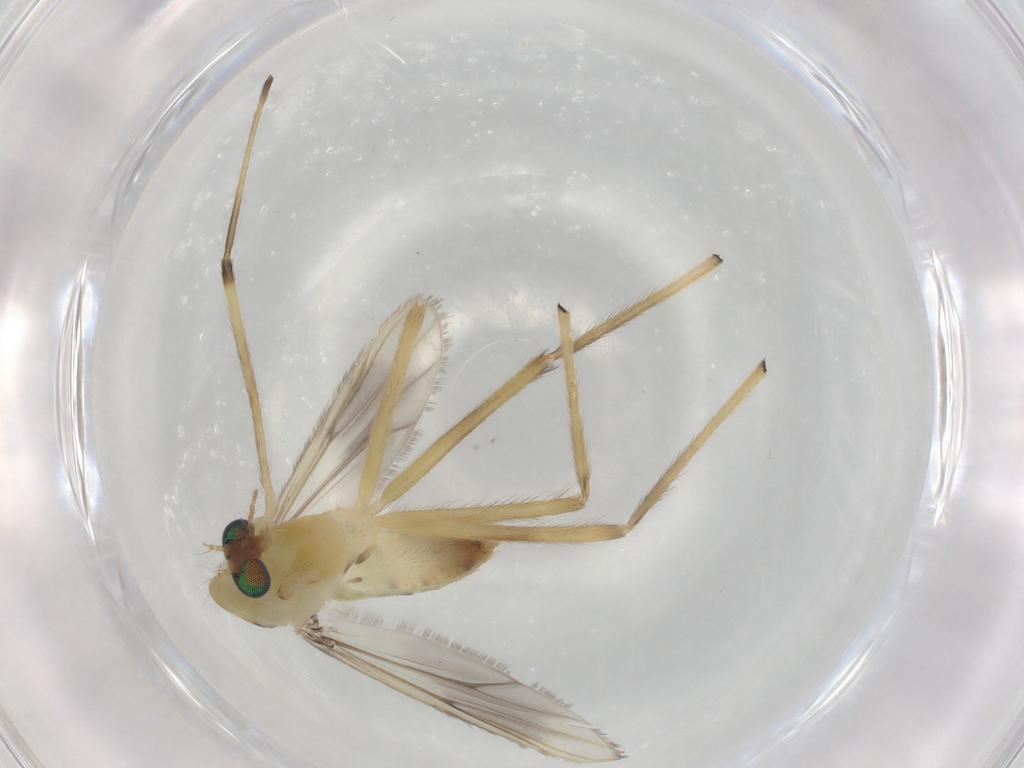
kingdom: Animalia
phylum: Arthropoda
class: Insecta
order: Diptera
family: Chironomidae
